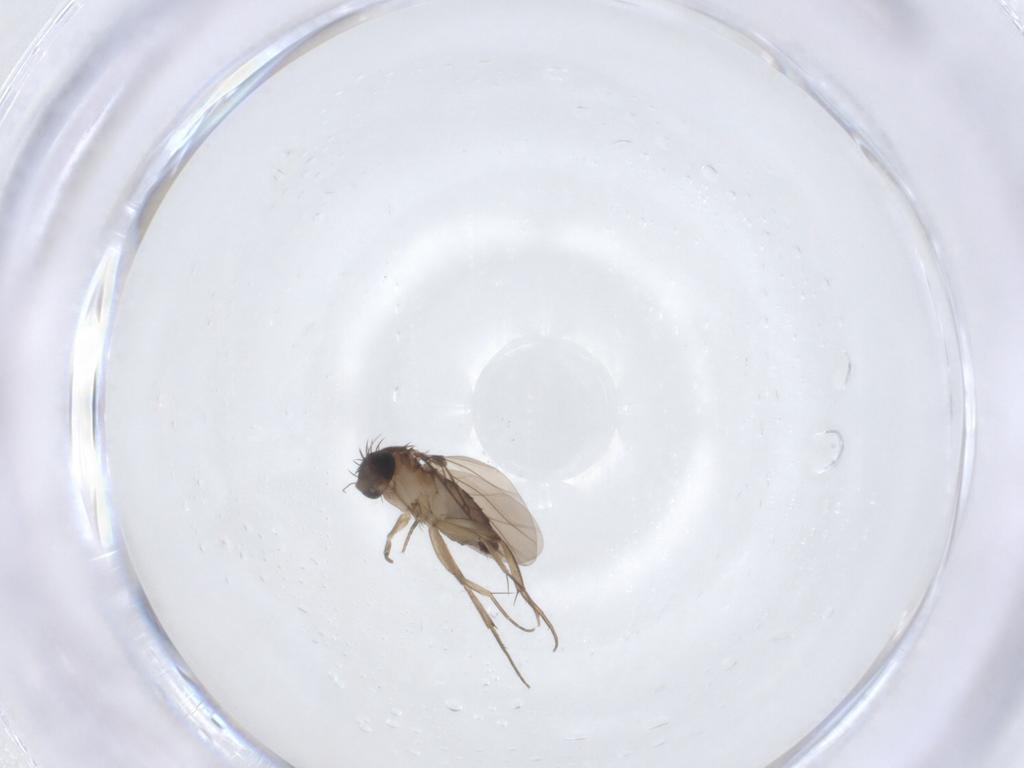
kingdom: Animalia
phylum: Arthropoda
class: Insecta
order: Diptera
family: Phoridae
